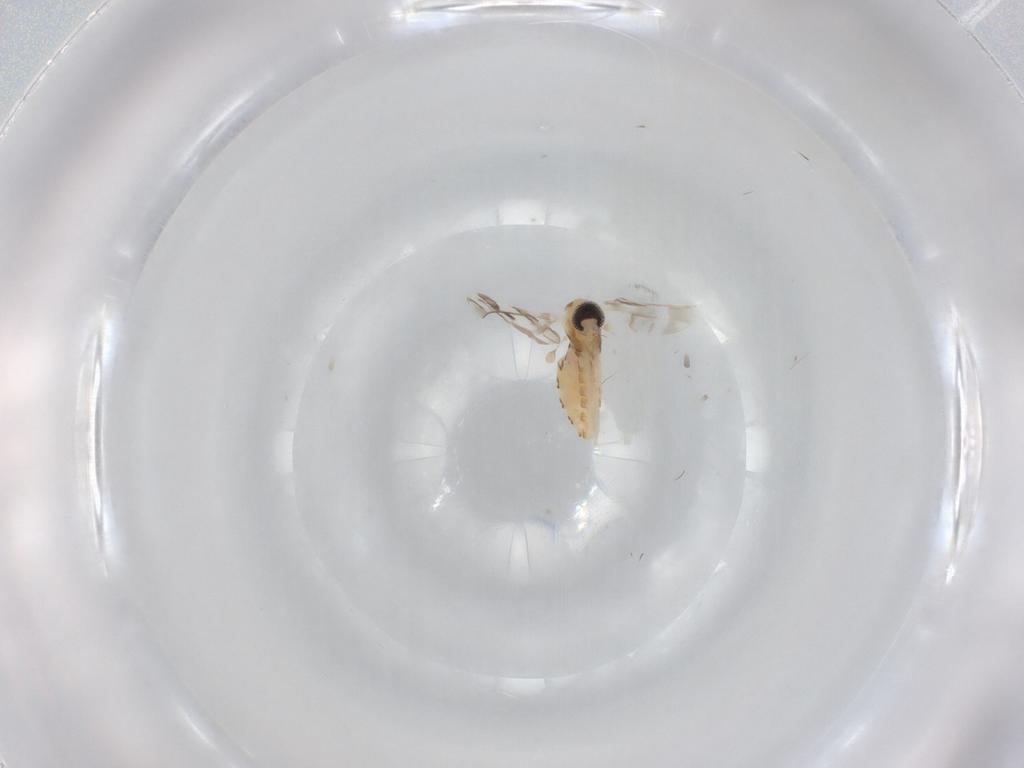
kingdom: Animalia
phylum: Arthropoda
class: Insecta
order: Diptera
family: Cecidomyiidae
